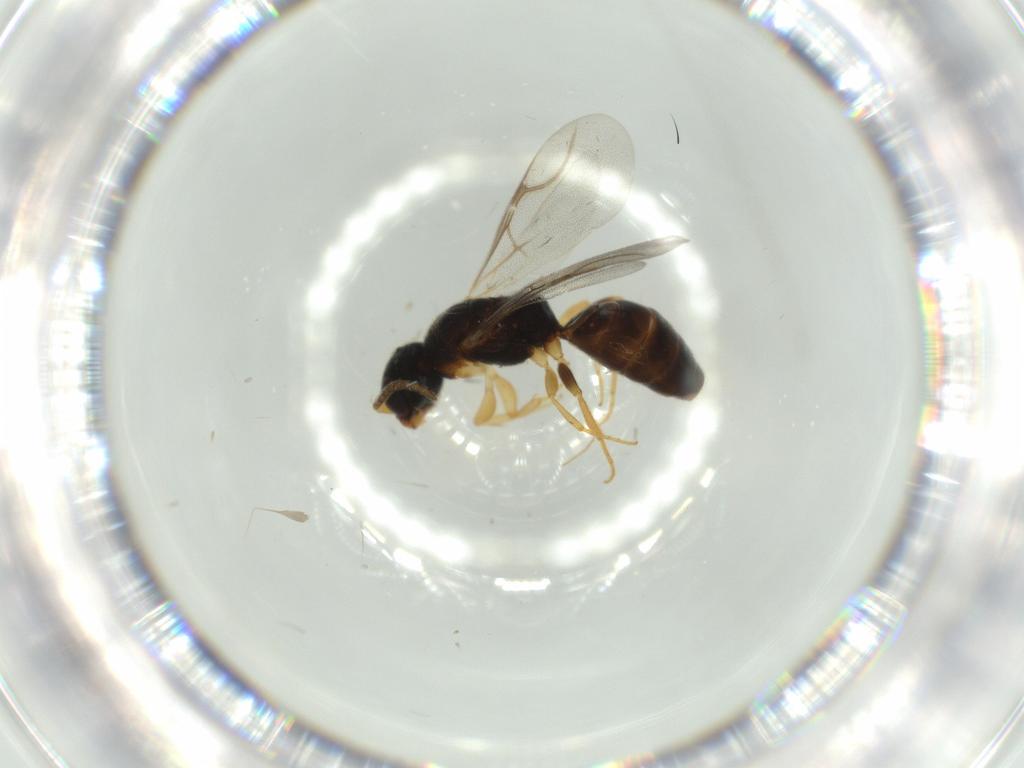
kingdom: Animalia
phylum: Arthropoda
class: Insecta
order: Hymenoptera
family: Bethylidae
